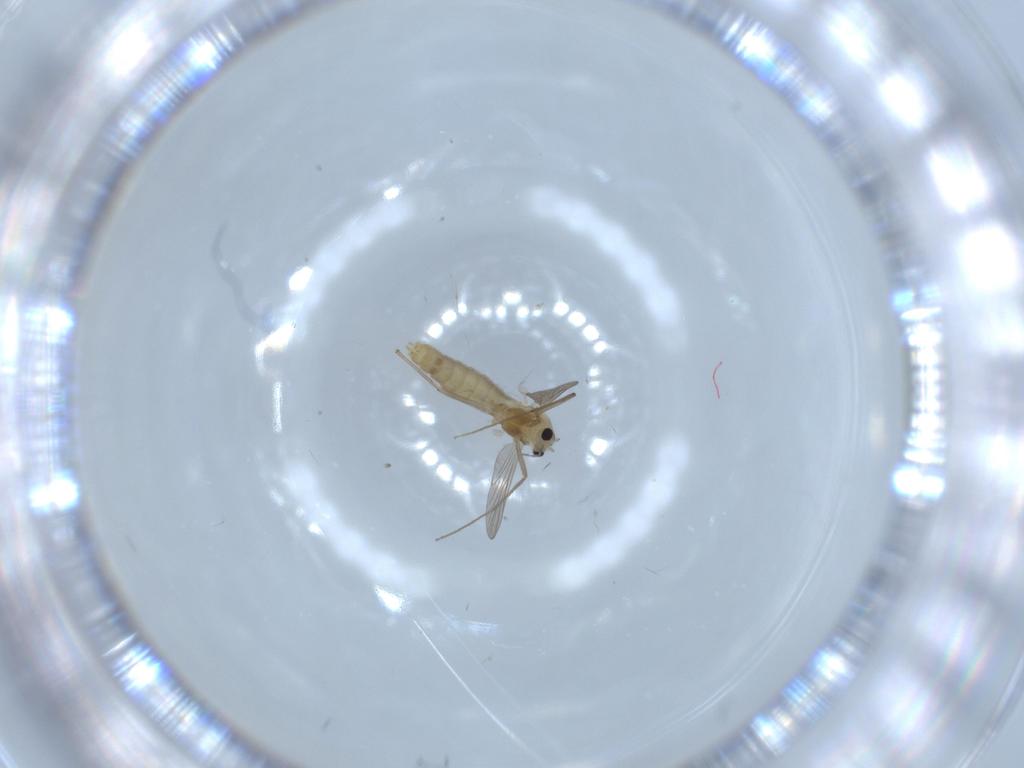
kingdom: Animalia
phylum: Arthropoda
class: Insecta
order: Diptera
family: Chironomidae
